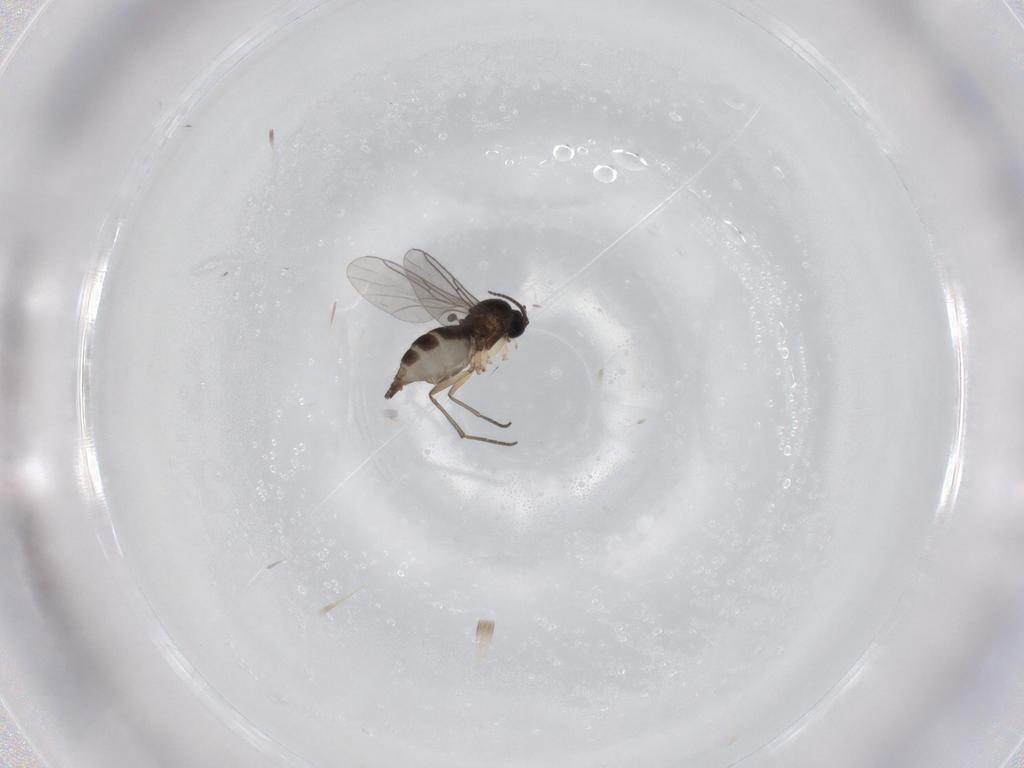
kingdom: Animalia
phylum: Arthropoda
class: Insecta
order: Diptera
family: Sciaridae
